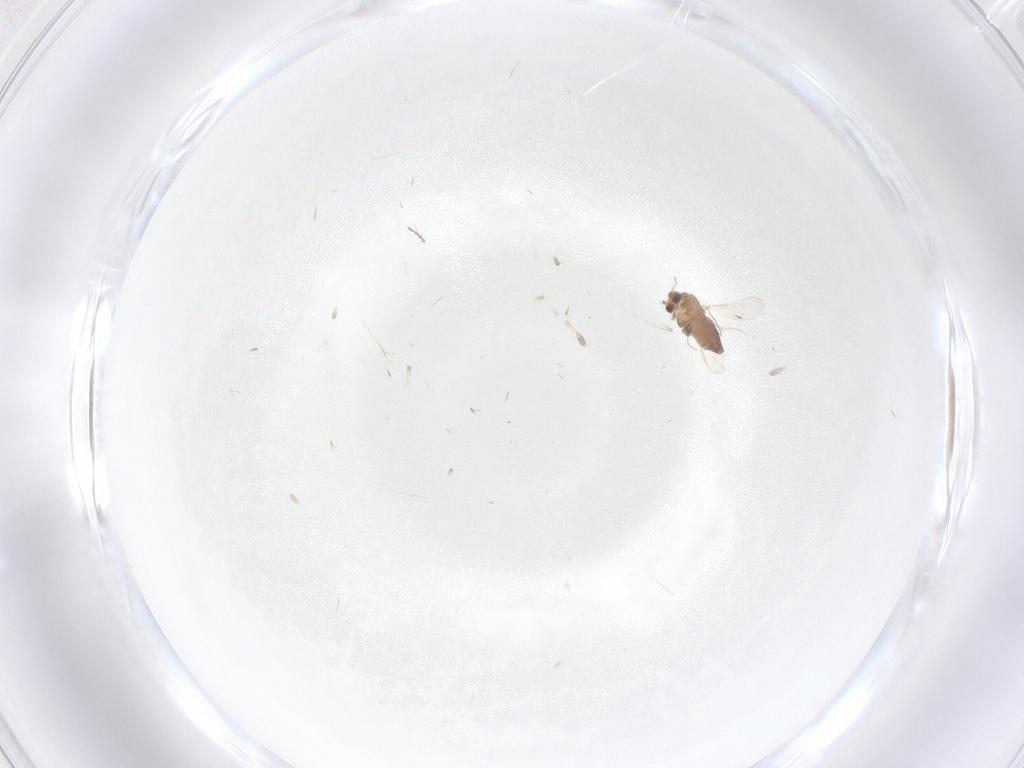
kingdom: Animalia
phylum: Arthropoda
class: Insecta
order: Diptera
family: Chironomidae
